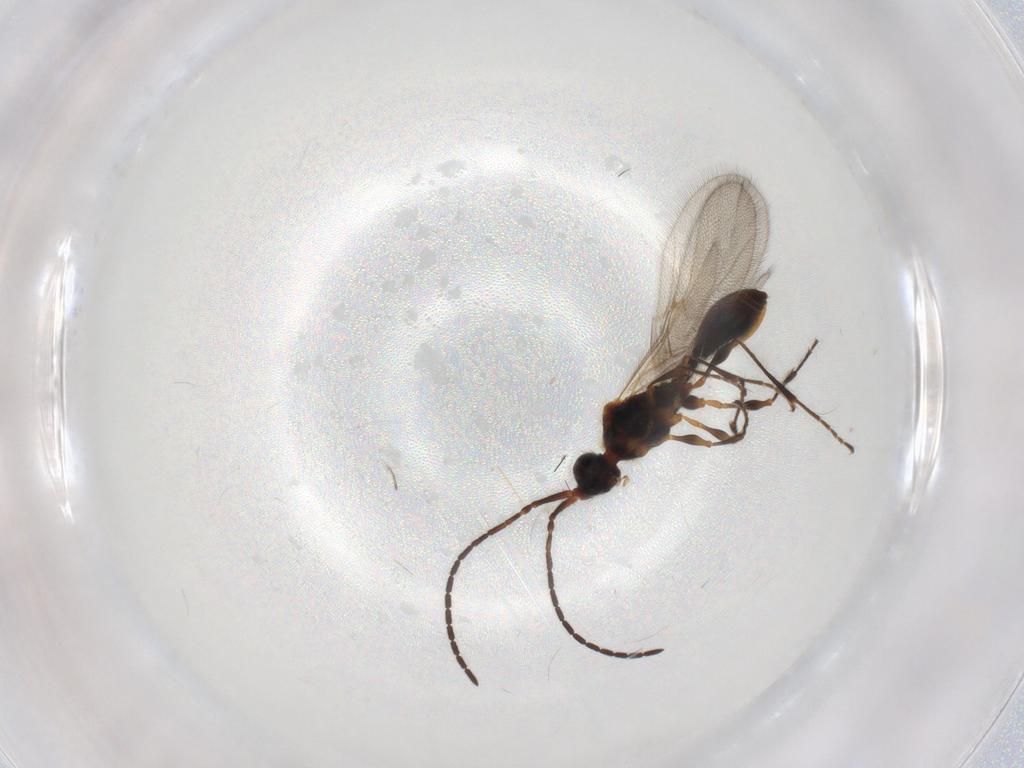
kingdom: Animalia
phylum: Arthropoda
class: Insecta
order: Hymenoptera
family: Diapriidae
